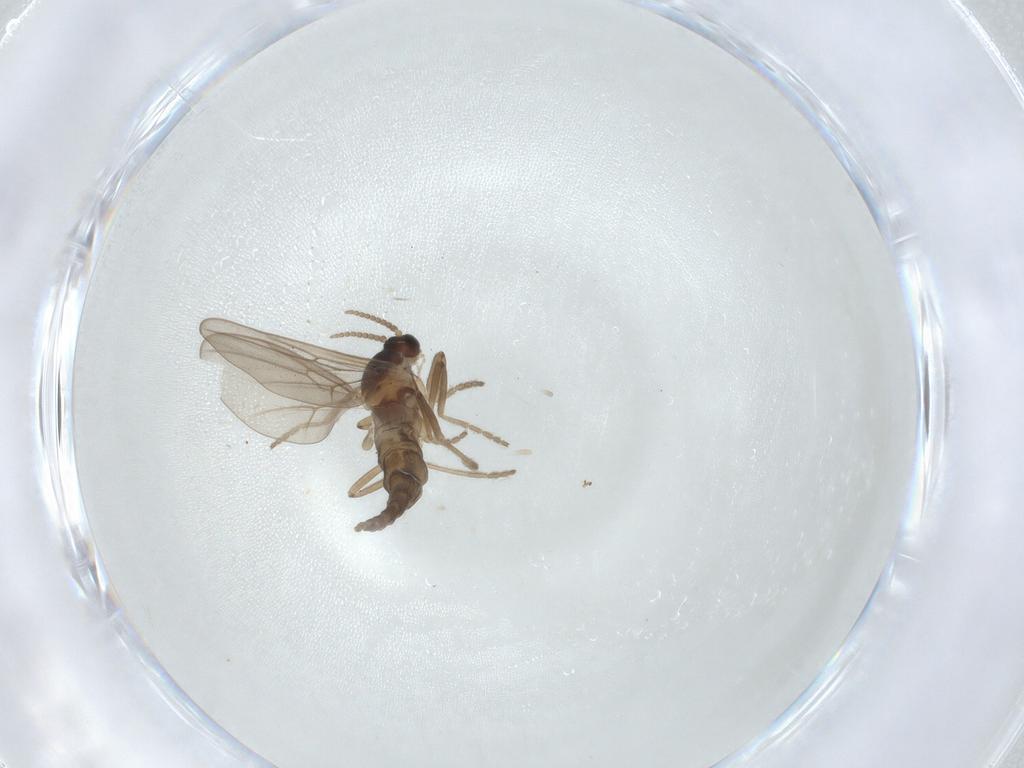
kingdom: Animalia
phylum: Arthropoda
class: Insecta
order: Diptera
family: Cecidomyiidae
